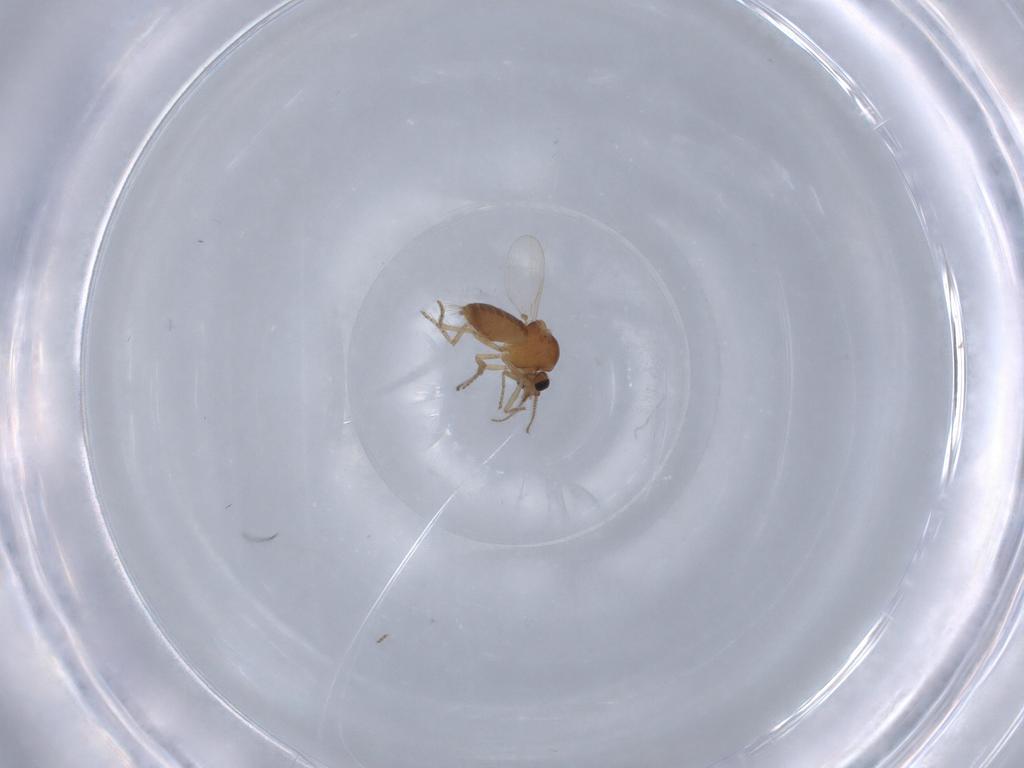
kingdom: Animalia
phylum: Arthropoda
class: Insecta
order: Diptera
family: Ceratopogonidae
